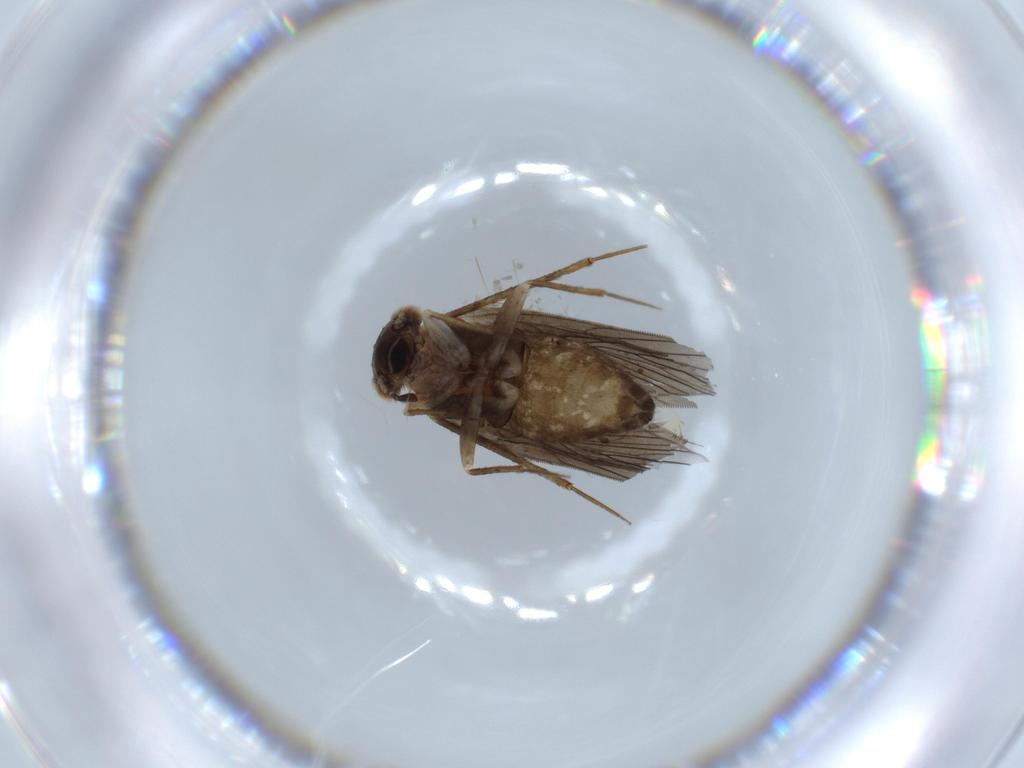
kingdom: Animalia
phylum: Arthropoda
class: Insecta
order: Psocodea
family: Lepidopsocidae
